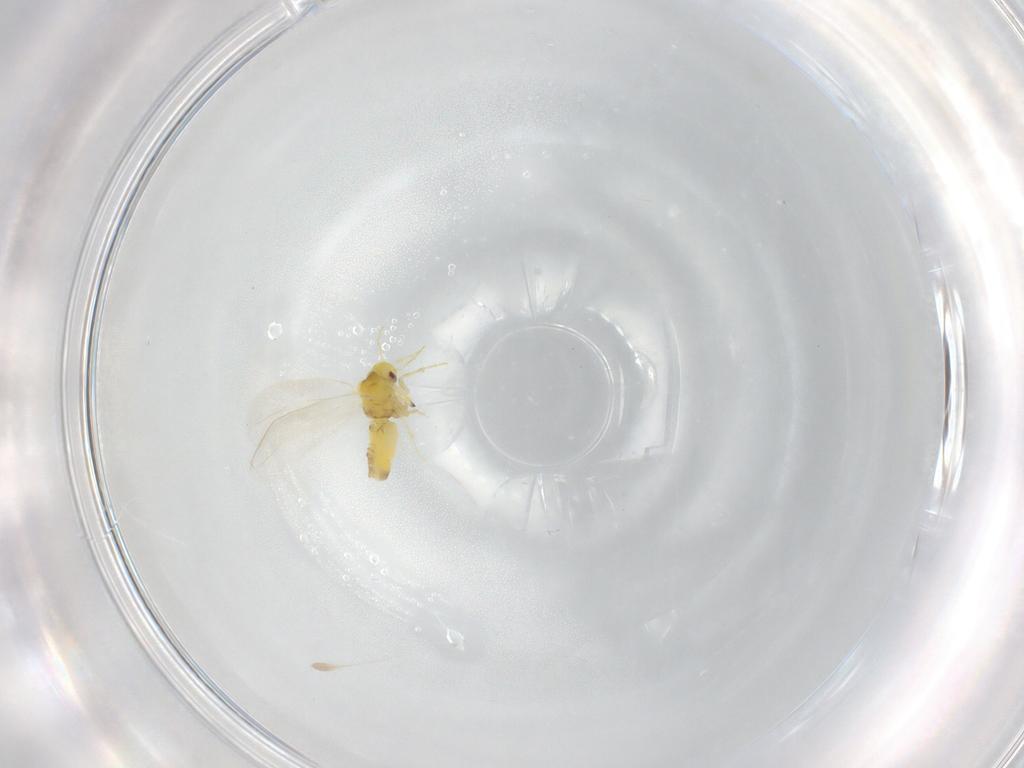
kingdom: Animalia
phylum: Arthropoda
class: Insecta
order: Hemiptera
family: Aleyrodidae
